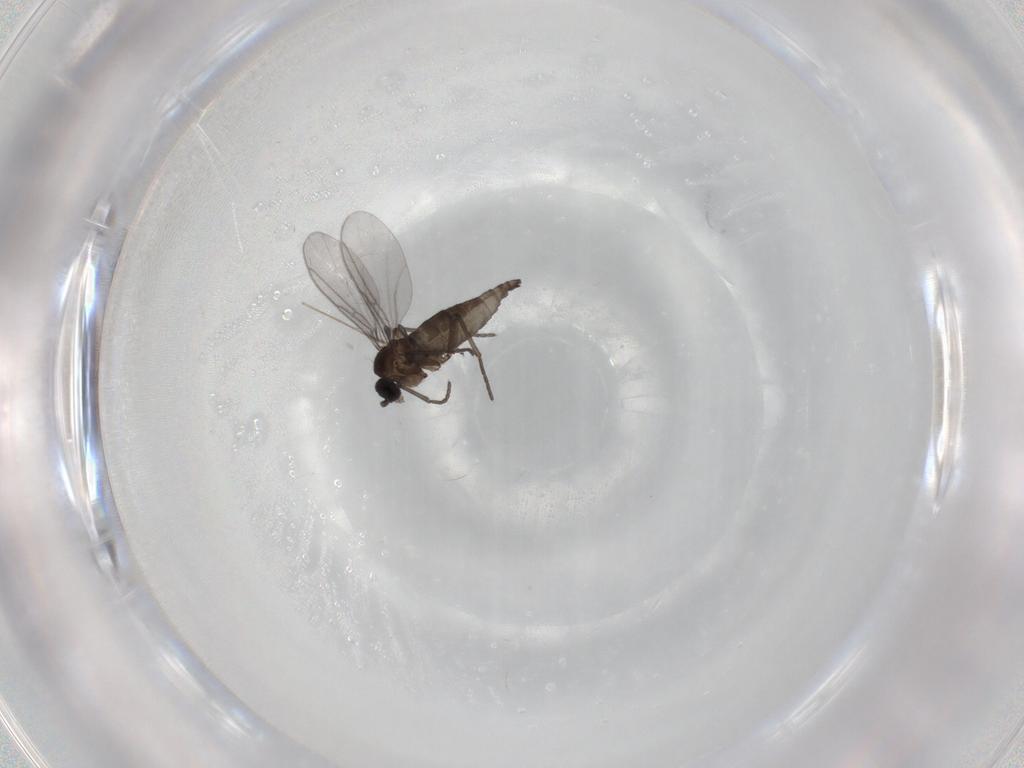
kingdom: Animalia
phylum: Arthropoda
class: Insecta
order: Diptera
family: Chironomidae
